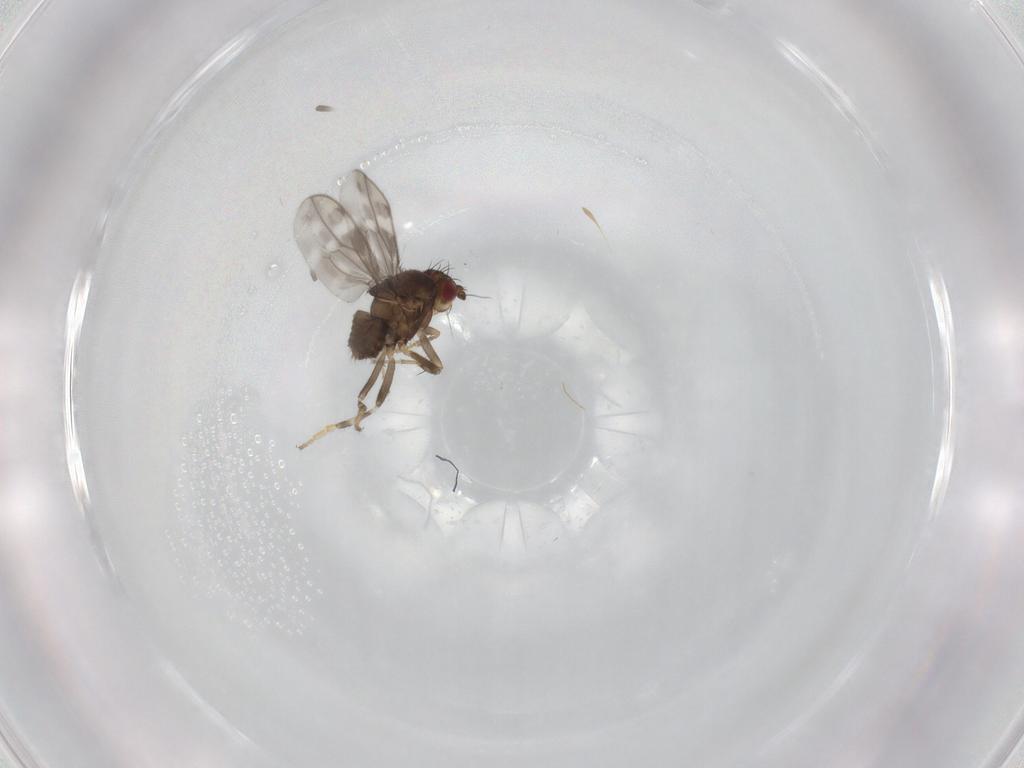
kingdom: Animalia
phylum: Arthropoda
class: Insecta
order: Diptera
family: Sphaeroceridae
